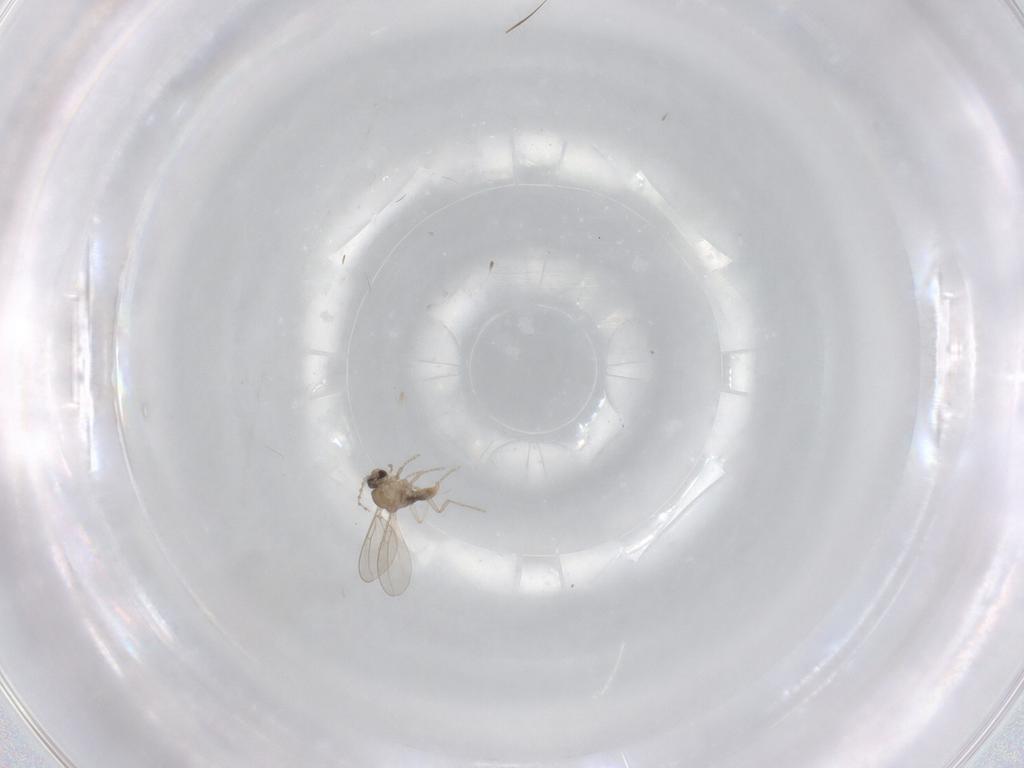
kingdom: Animalia
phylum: Arthropoda
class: Insecta
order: Diptera
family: Cecidomyiidae
